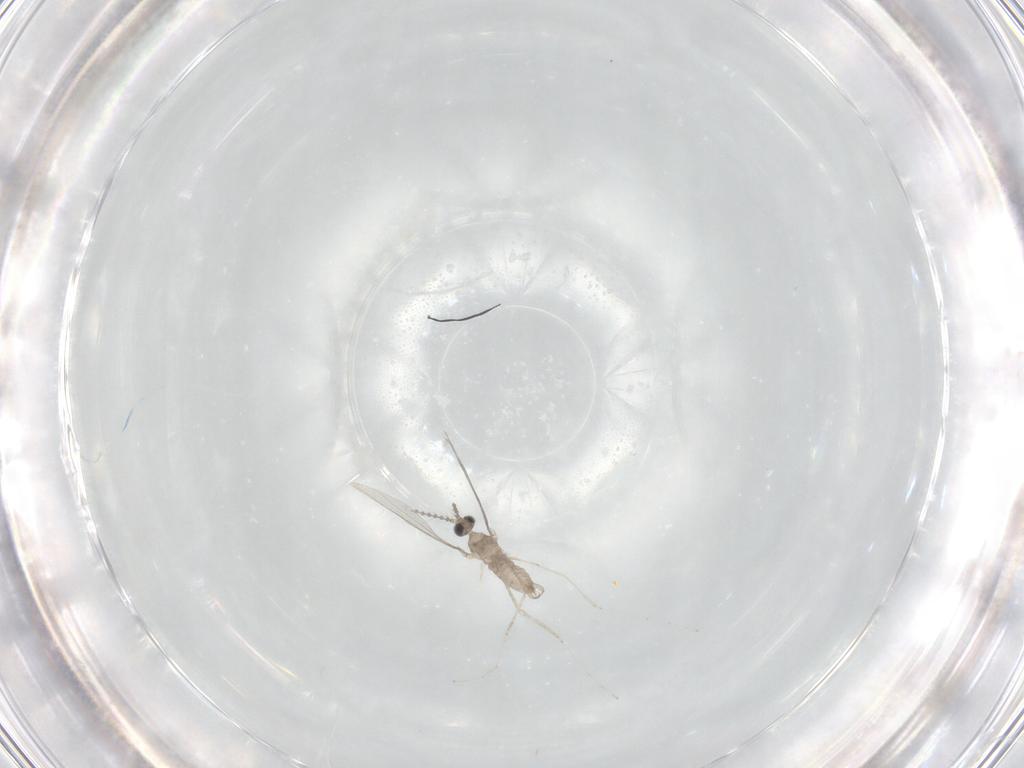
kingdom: Animalia
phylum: Arthropoda
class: Insecta
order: Diptera
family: Cecidomyiidae
